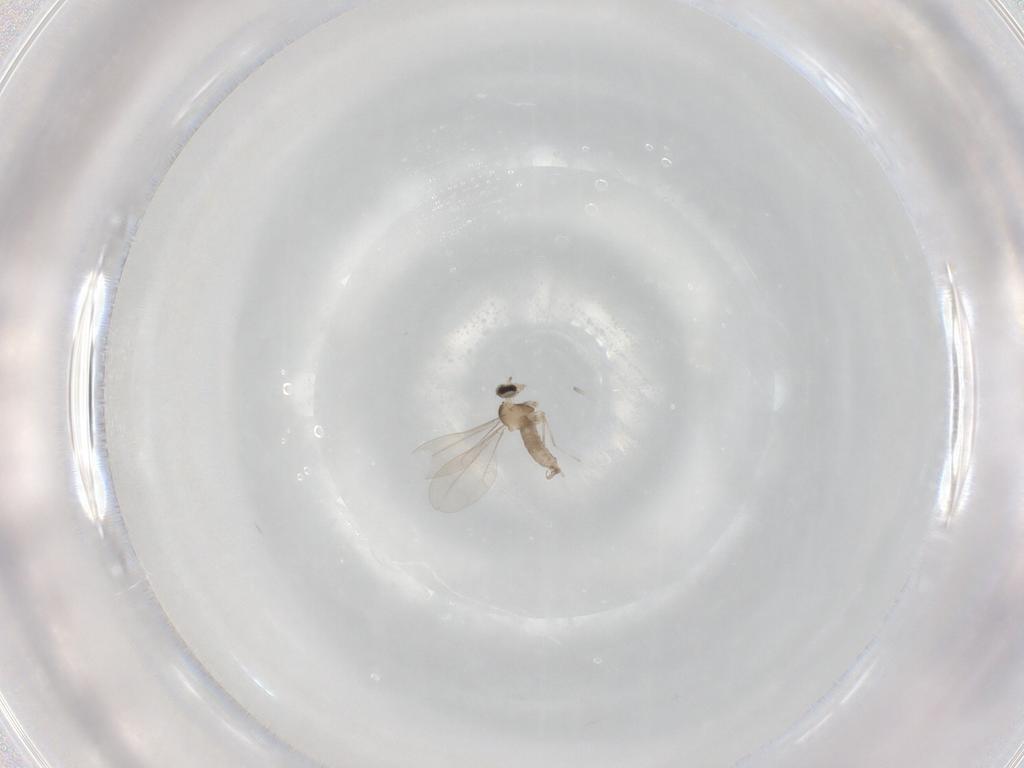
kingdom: Animalia
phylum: Arthropoda
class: Insecta
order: Diptera
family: Cecidomyiidae
